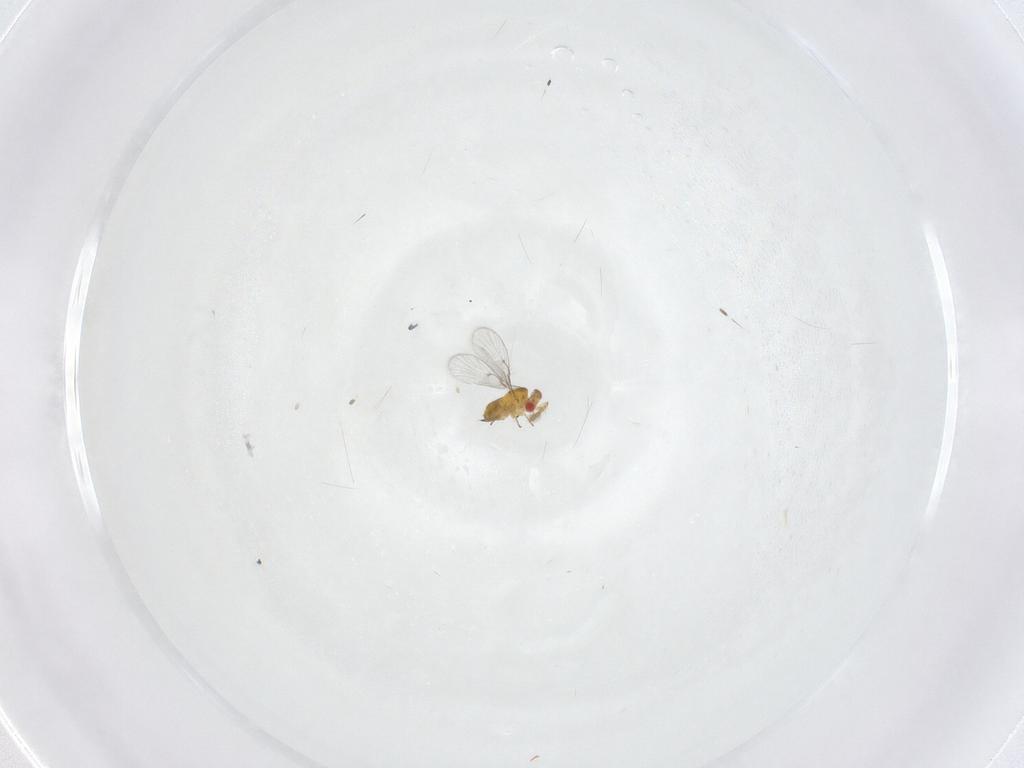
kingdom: Animalia
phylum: Arthropoda
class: Insecta
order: Hymenoptera
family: Trichogrammatidae
